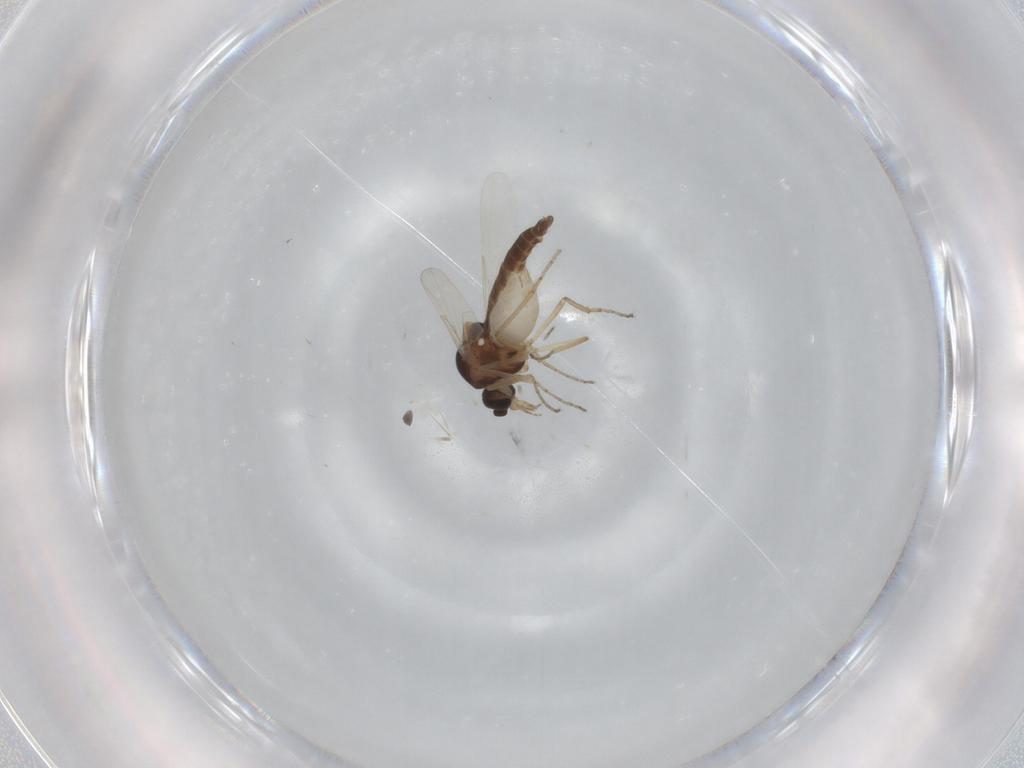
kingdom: Animalia
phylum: Arthropoda
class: Insecta
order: Diptera
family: Ceratopogonidae
